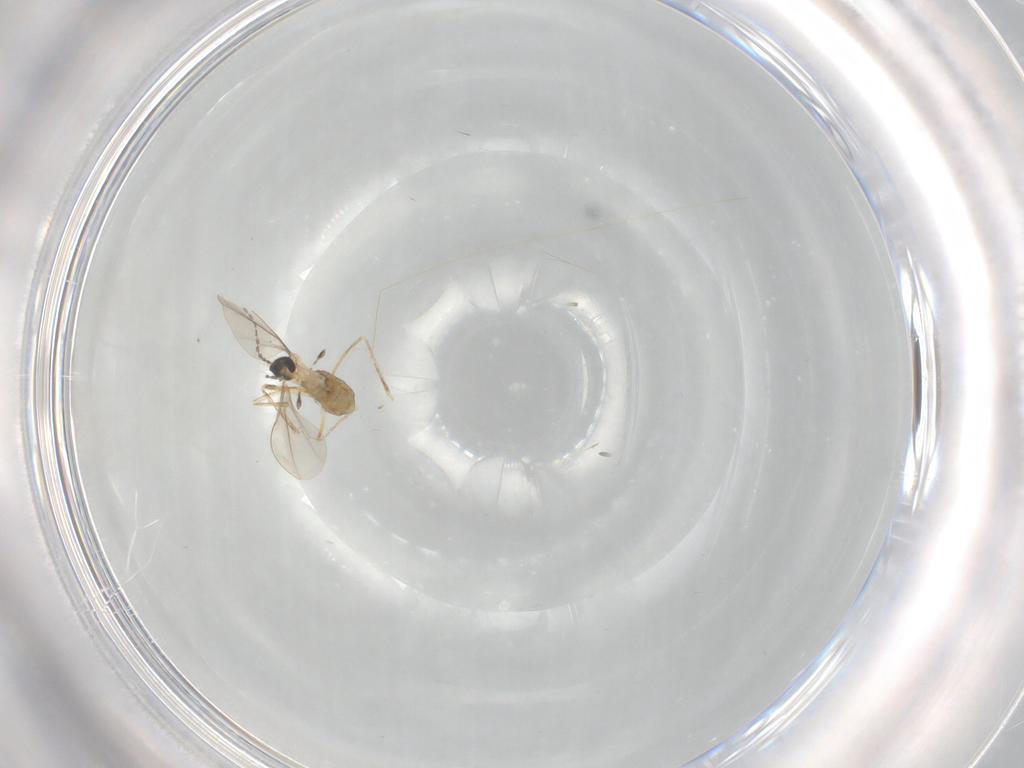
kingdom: Animalia
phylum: Arthropoda
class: Insecta
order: Diptera
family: Cecidomyiidae
